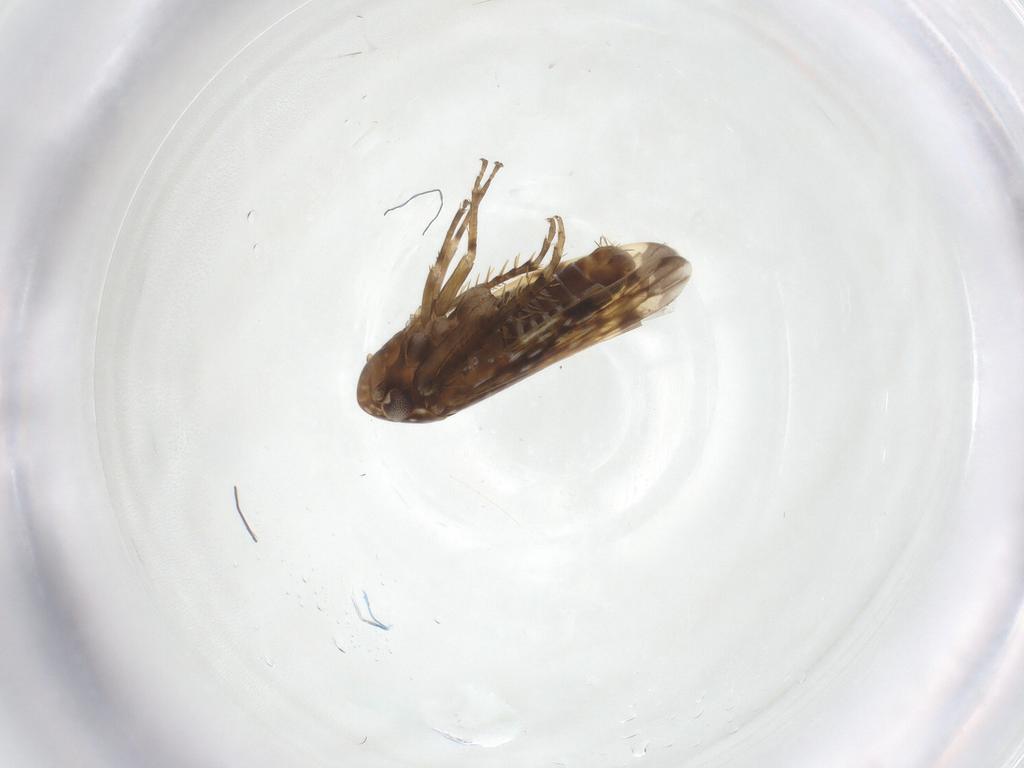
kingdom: Animalia
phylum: Arthropoda
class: Insecta
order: Hemiptera
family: Cicadellidae
